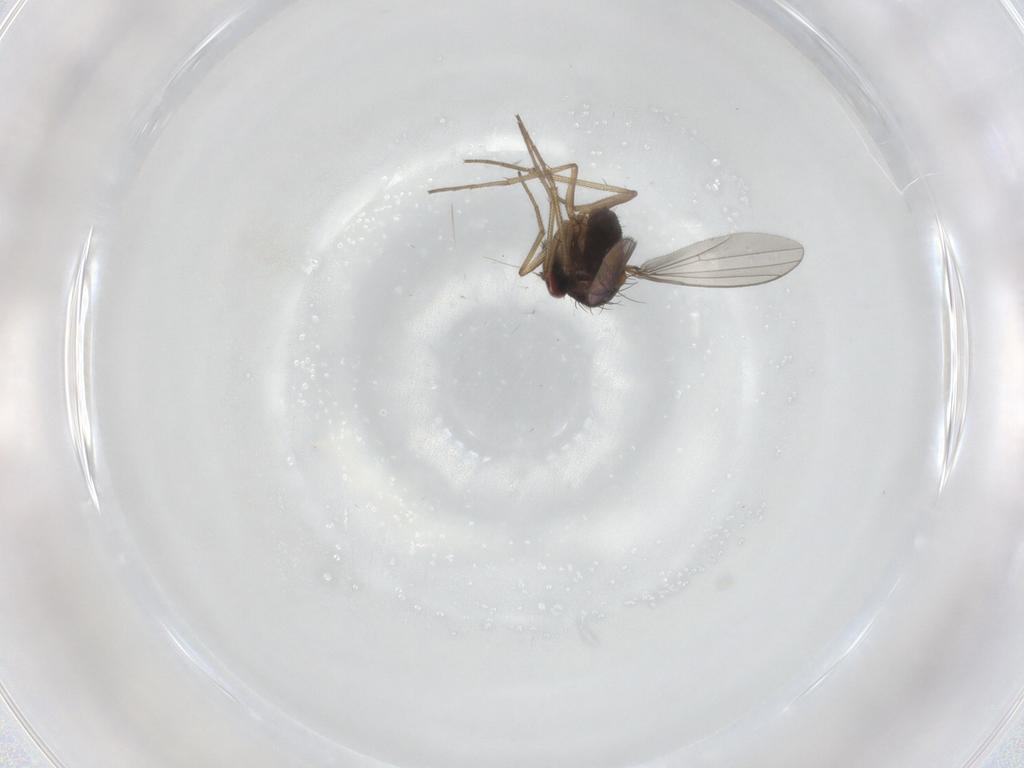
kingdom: Animalia
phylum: Arthropoda
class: Insecta
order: Diptera
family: Dolichopodidae
